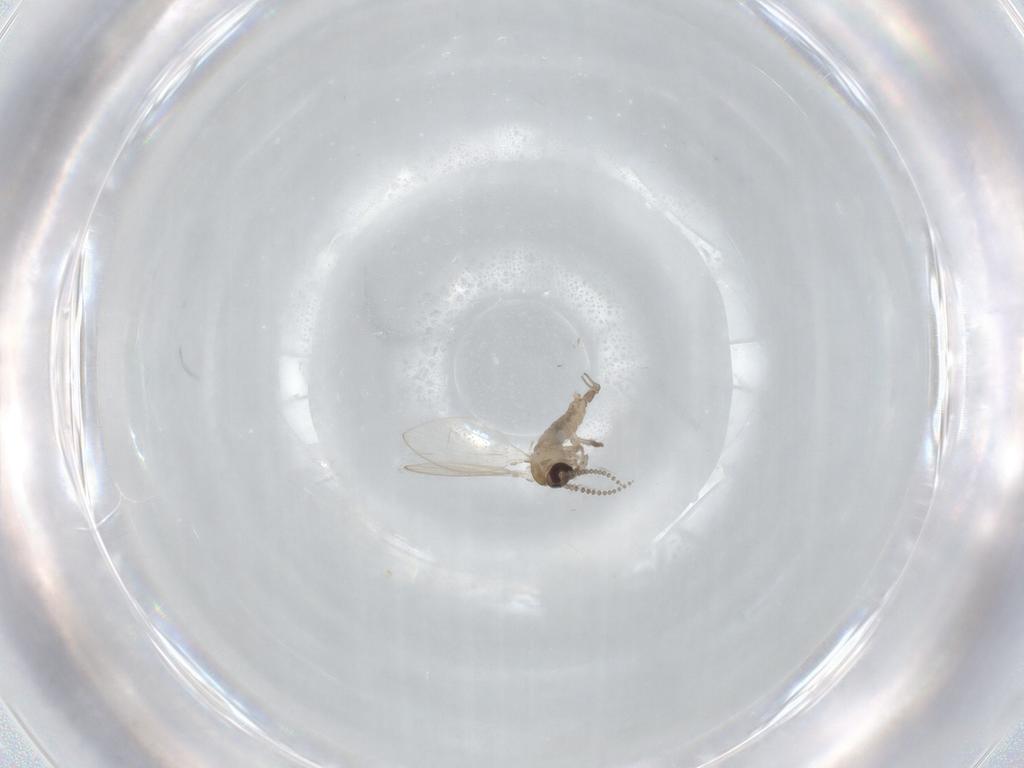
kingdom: Animalia
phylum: Arthropoda
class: Insecta
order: Diptera
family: Psychodidae
